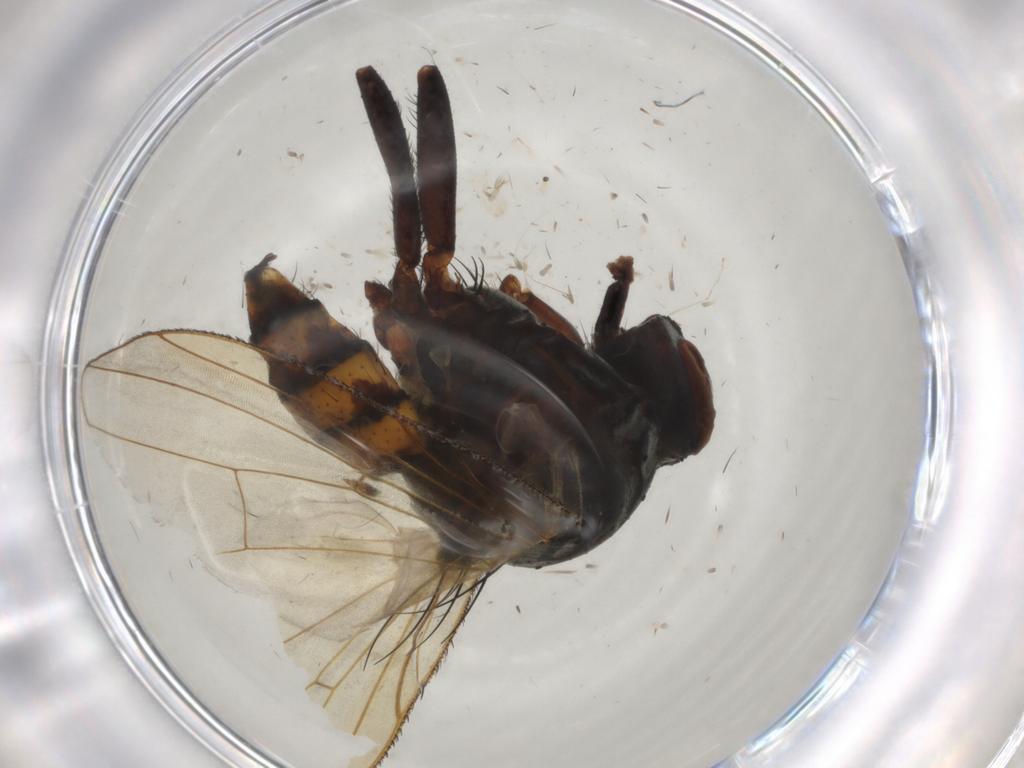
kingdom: Animalia
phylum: Arthropoda
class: Insecta
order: Diptera
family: Anthomyiidae
